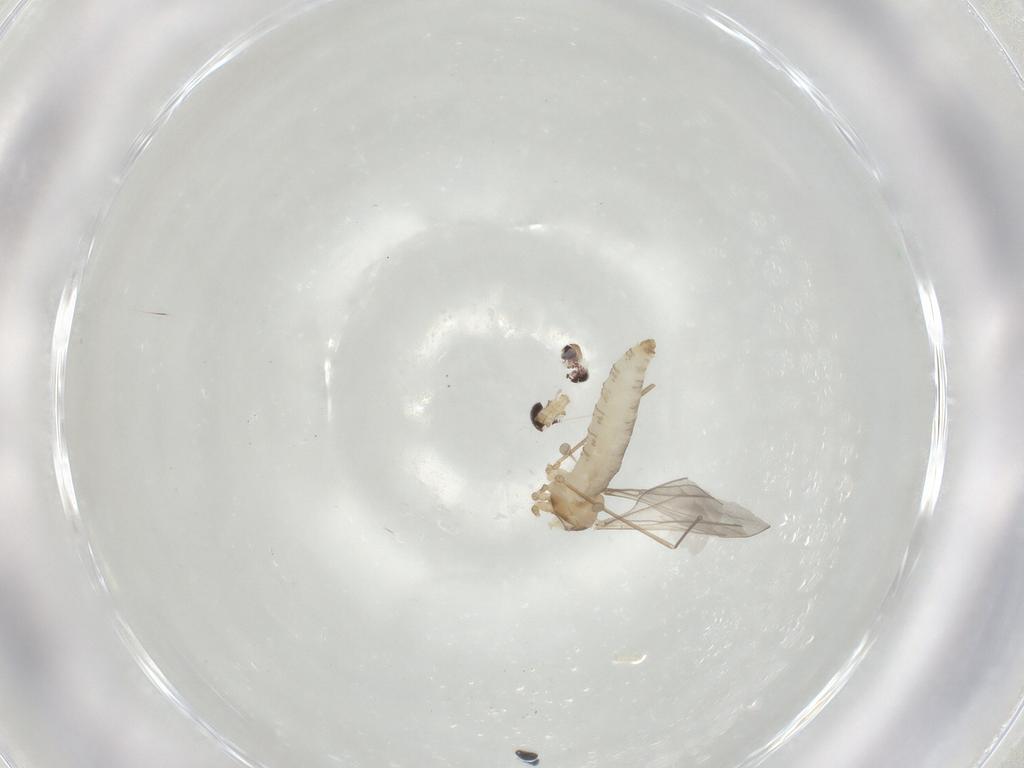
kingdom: Animalia
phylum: Arthropoda
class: Insecta
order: Diptera
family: Cecidomyiidae
